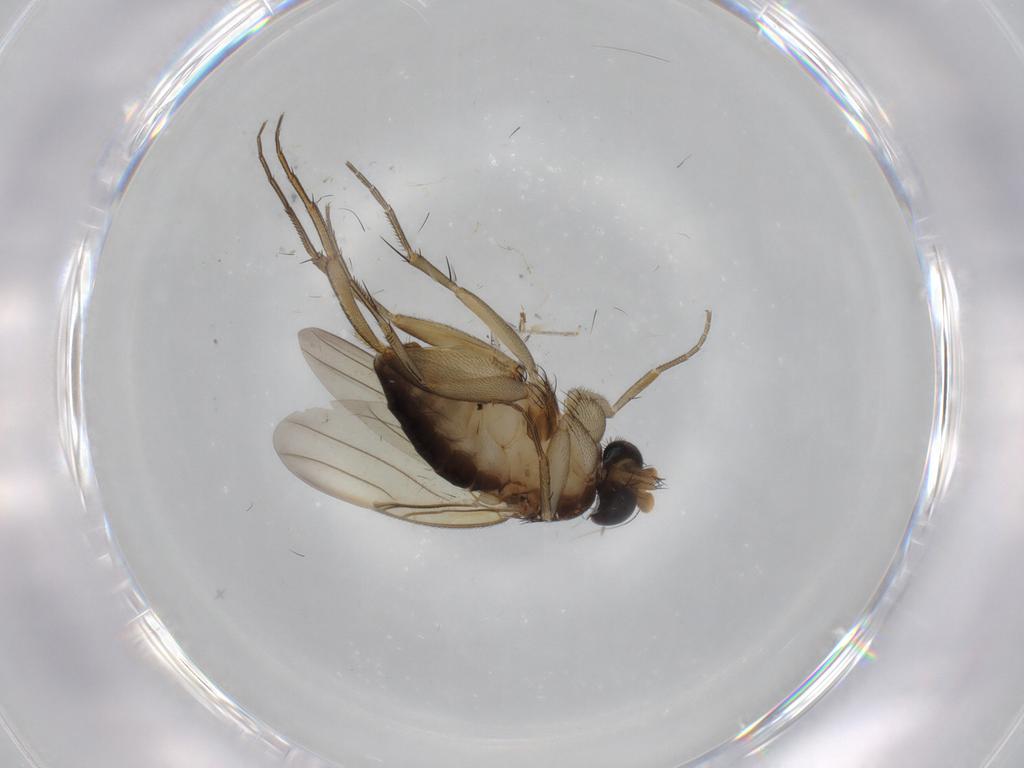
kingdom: Animalia
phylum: Arthropoda
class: Insecta
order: Diptera
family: Phoridae
